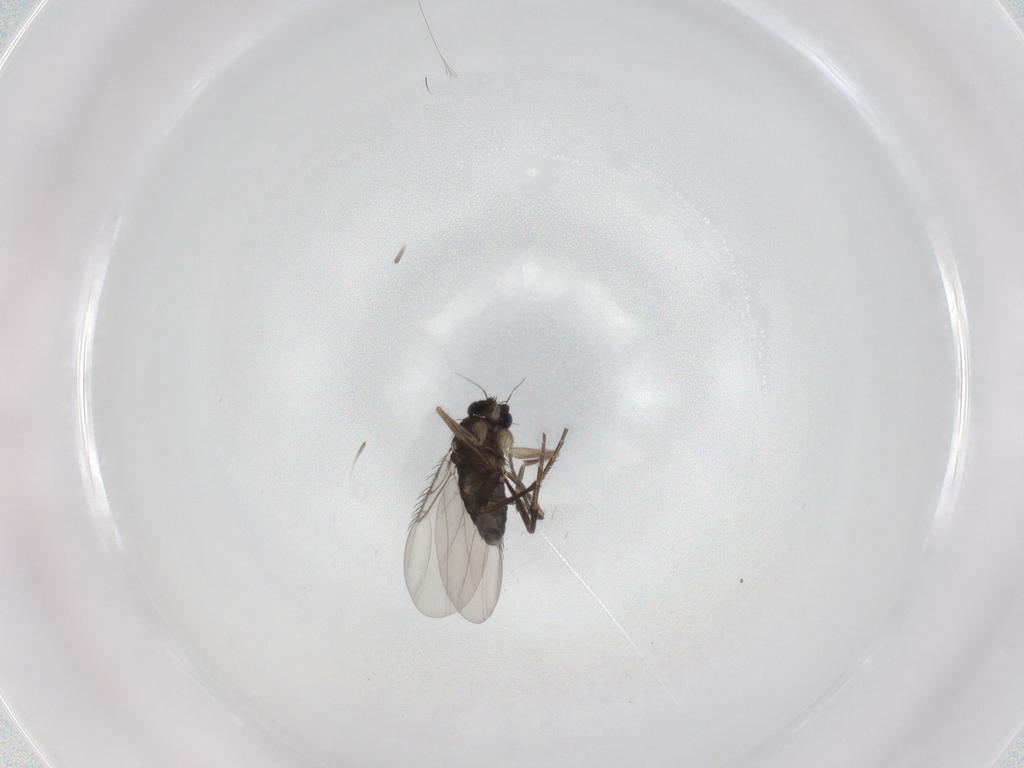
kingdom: Animalia
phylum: Arthropoda
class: Insecta
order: Diptera
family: Phoridae
